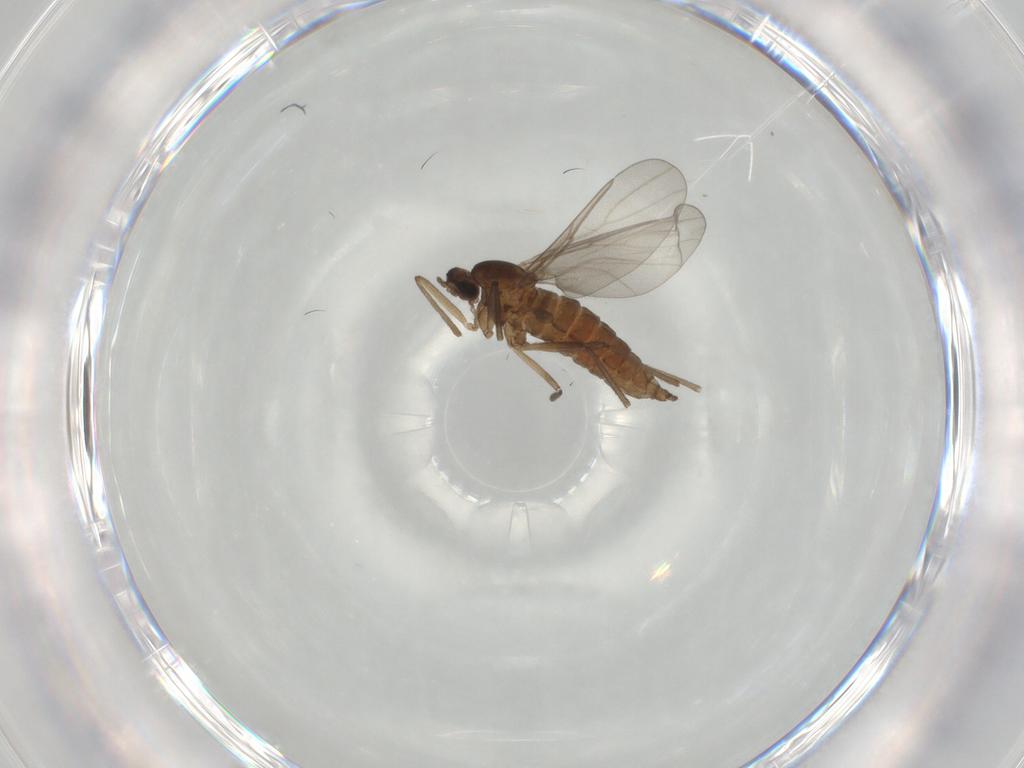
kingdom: Animalia
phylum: Arthropoda
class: Insecta
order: Diptera
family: Cecidomyiidae
